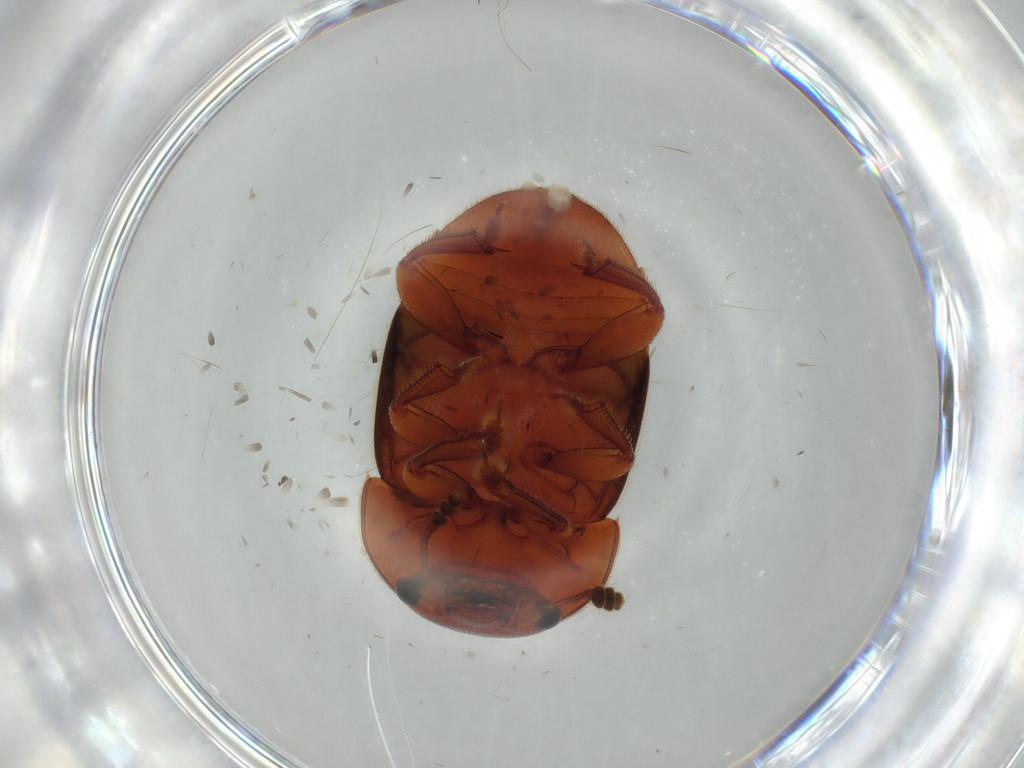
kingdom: Animalia
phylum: Arthropoda
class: Insecta
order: Coleoptera
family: Nitidulidae
